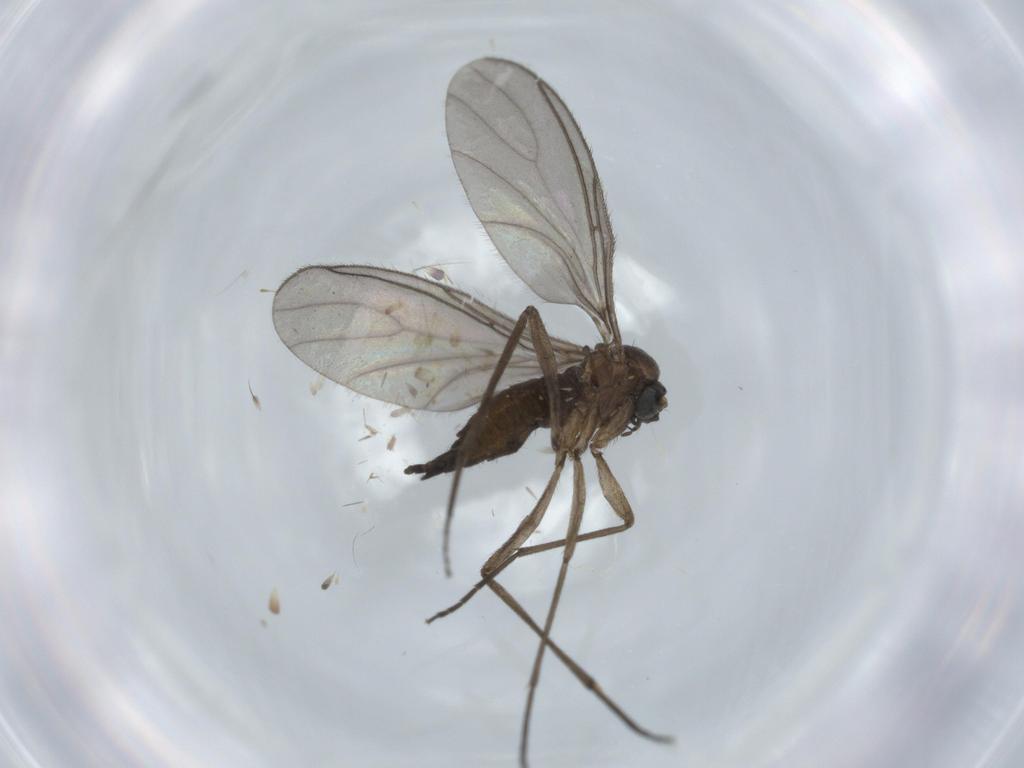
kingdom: Animalia
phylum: Arthropoda
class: Insecta
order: Diptera
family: Sciaridae
